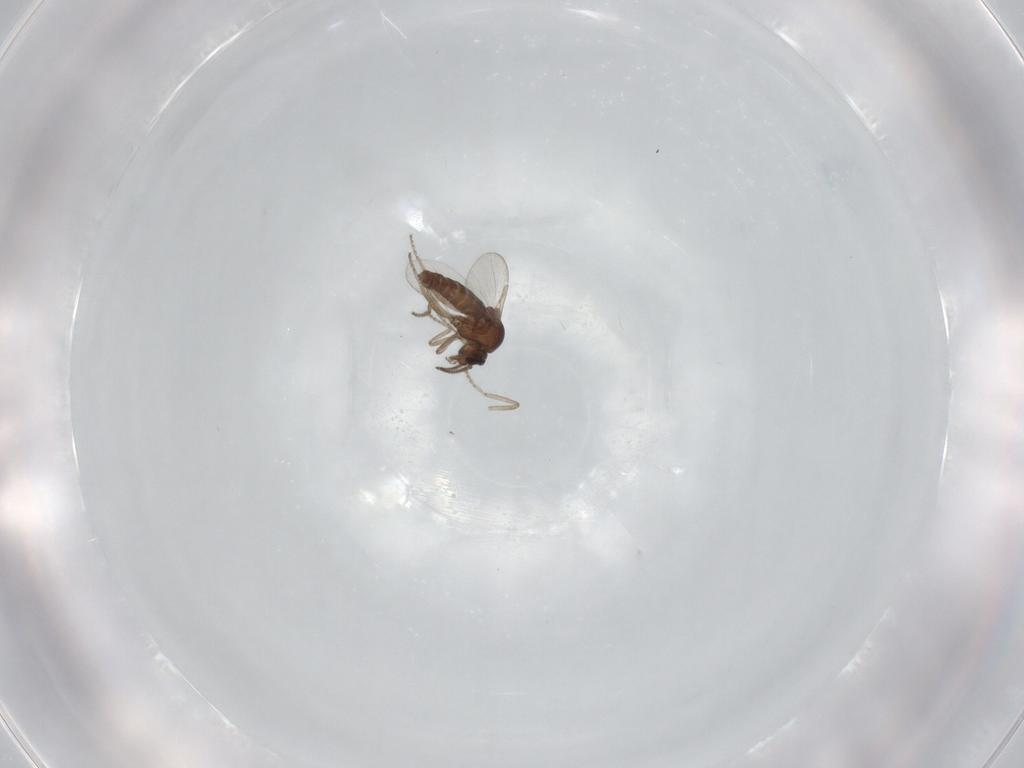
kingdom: Animalia
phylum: Arthropoda
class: Insecta
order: Diptera
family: Ceratopogonidae
